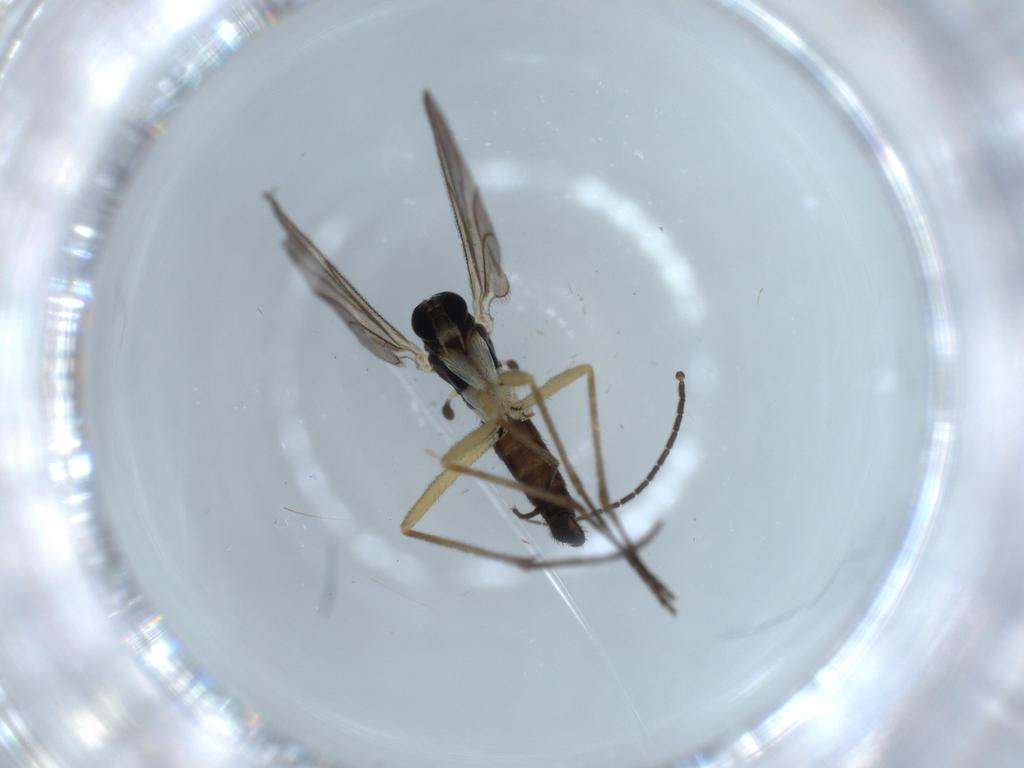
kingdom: Animalia
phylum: Arthropoda
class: Insecta
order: Diptera
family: Sciaridae
